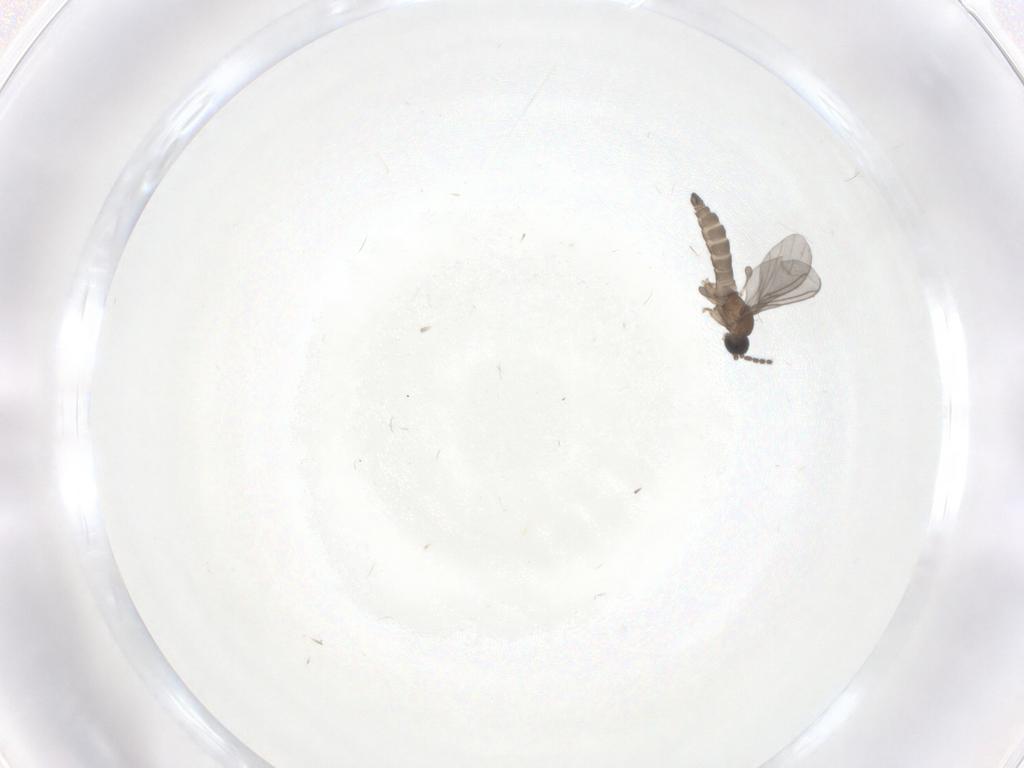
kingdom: Animalia
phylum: Arthropoda
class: Insecta
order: Diptera
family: Sciaridae
